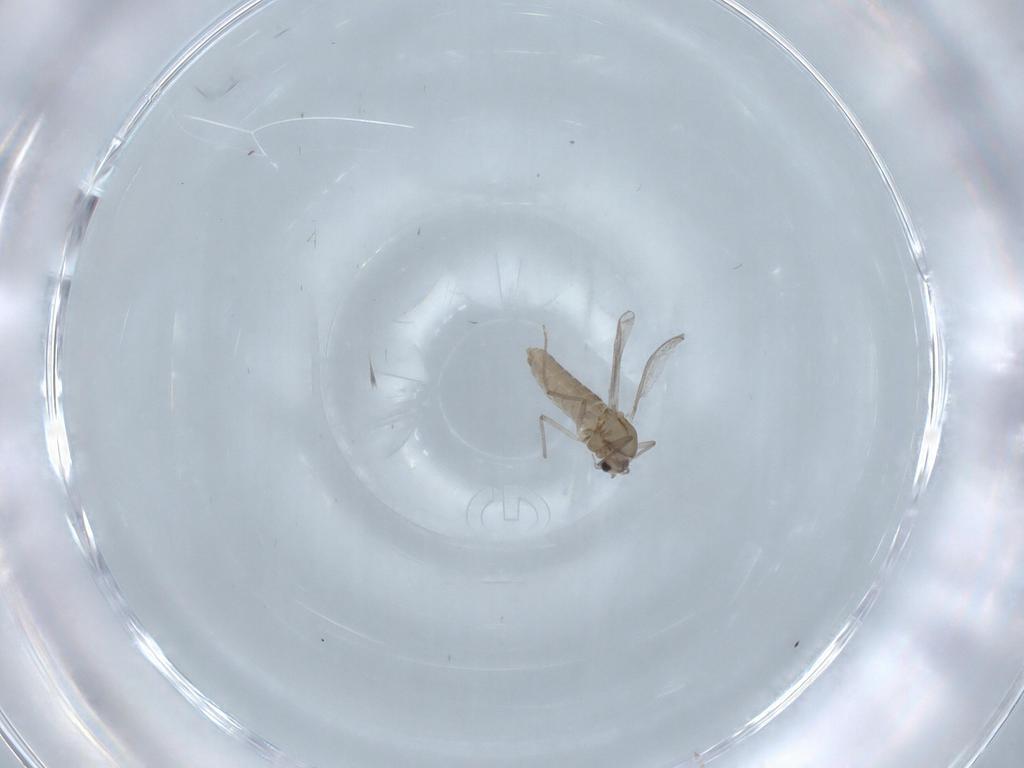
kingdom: Animalia
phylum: Arthropoda
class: Insecta
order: Diptera
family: Chironomidae
